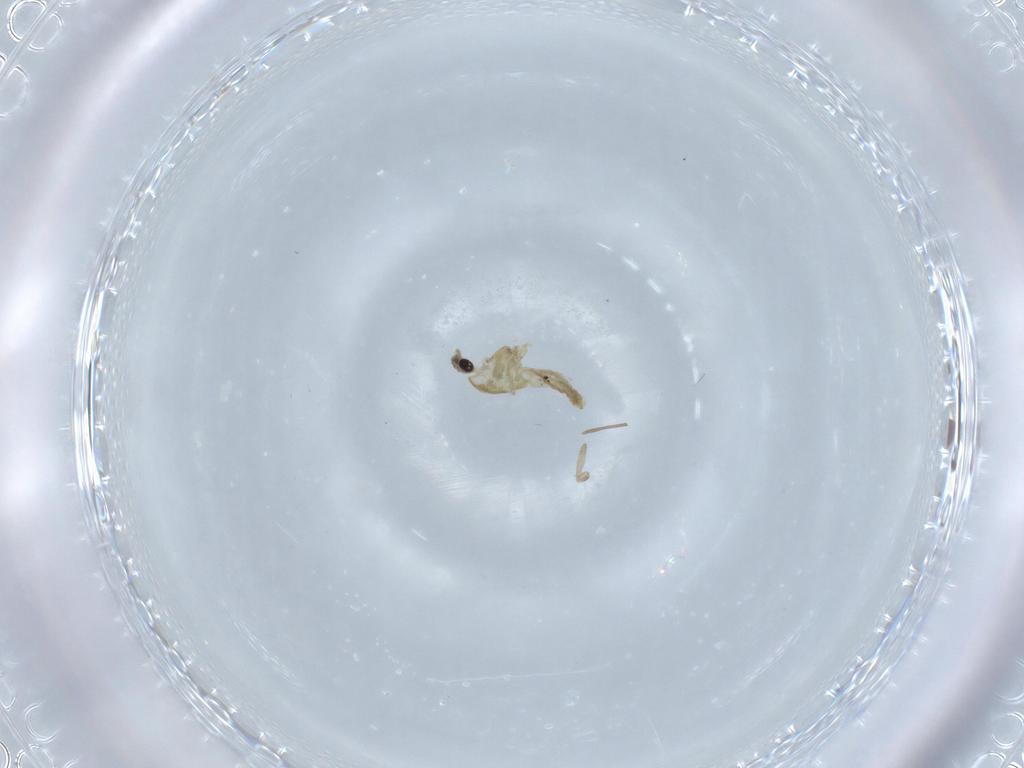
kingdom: Animalia
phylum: Arthropoda
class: Insecta
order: Diptera
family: Chironomidae
